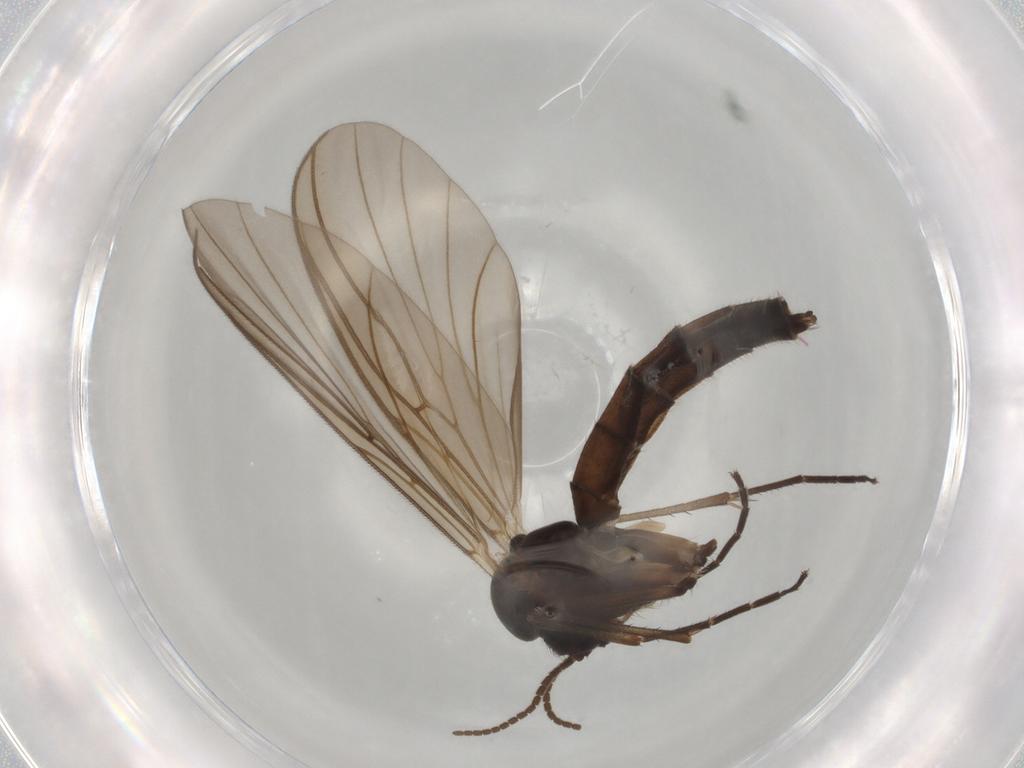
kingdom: Animalia
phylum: Arthropoda
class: Insecta
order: Diptera
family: Mycetophilidae
